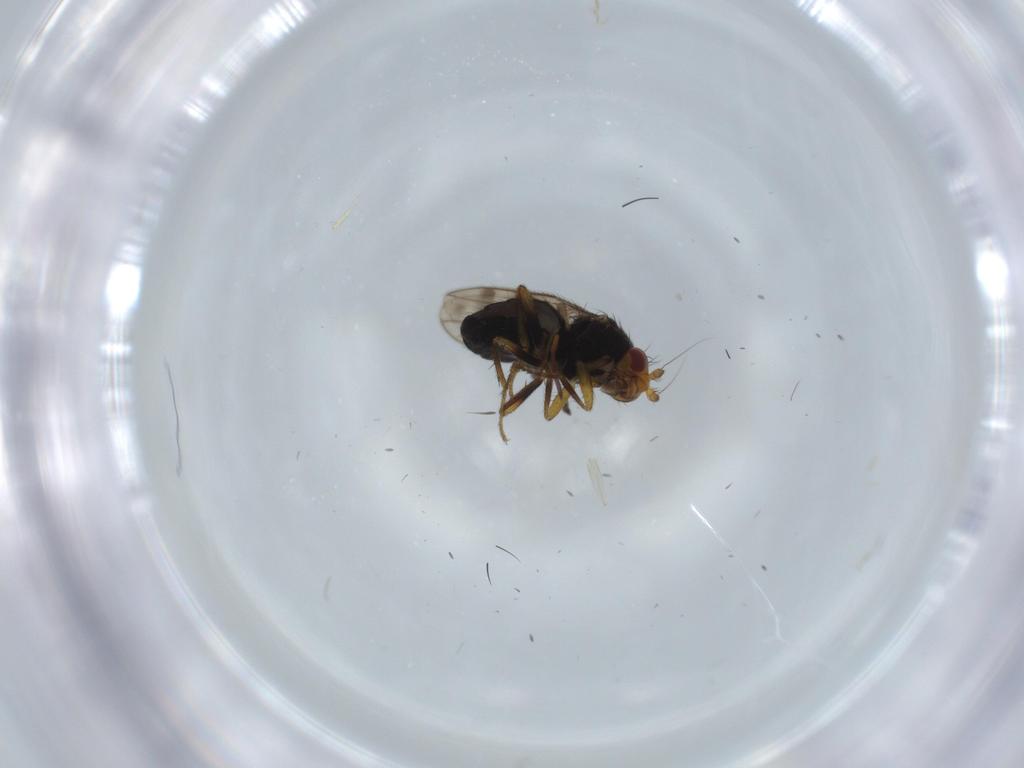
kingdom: Animalia
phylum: Arthropoda
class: Insecta
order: Diptera
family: Sphaeroceridae
